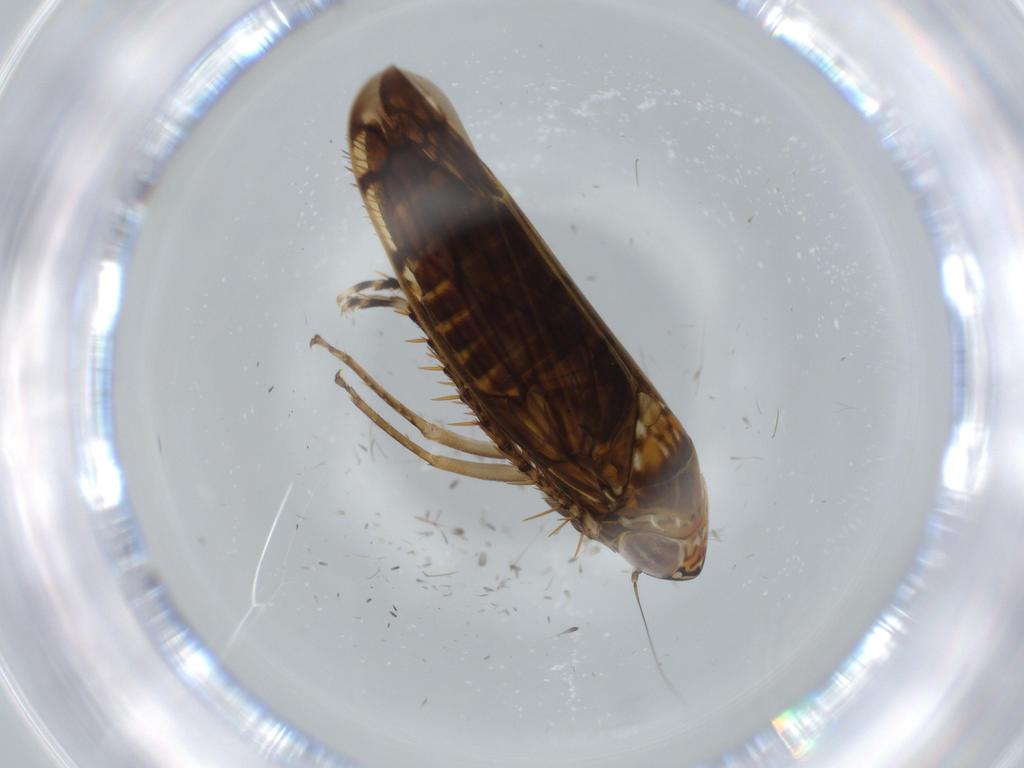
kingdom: Animalia
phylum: Arthropoda
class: Insecta
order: Hemiptera
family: Cicadellidae
